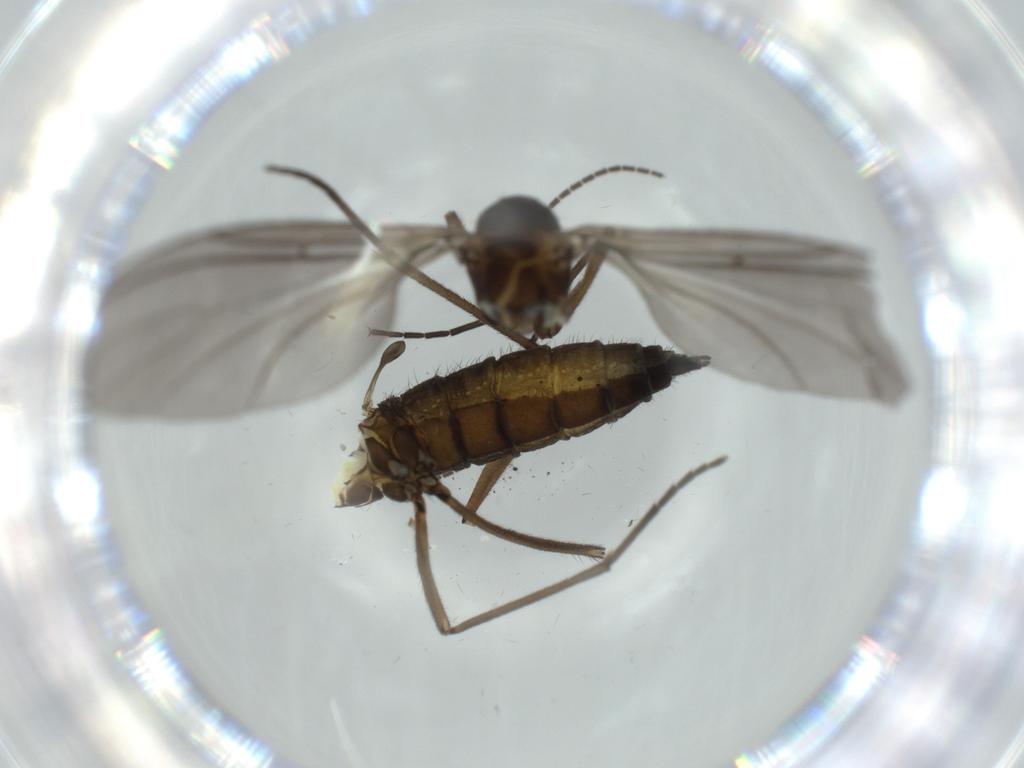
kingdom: Animalia
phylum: Arthropoda
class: Insecta
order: Diptera
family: Sciaridae
